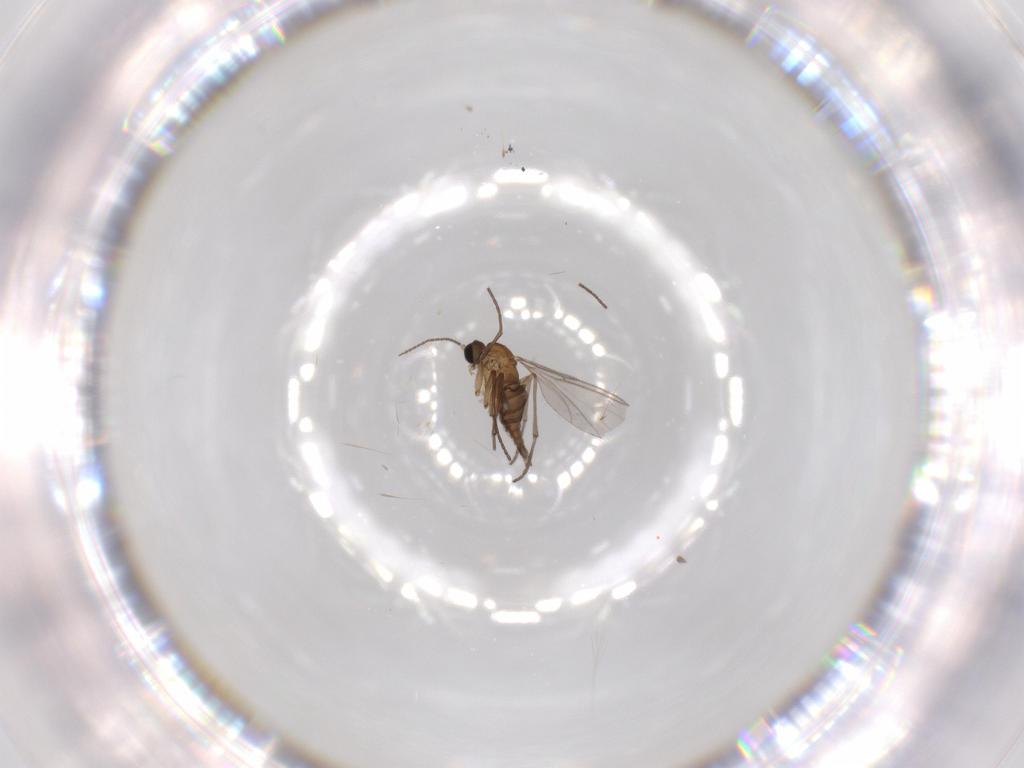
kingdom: Animalia
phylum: Arthropoda
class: Insecta
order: Diptera
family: Sciaridae
